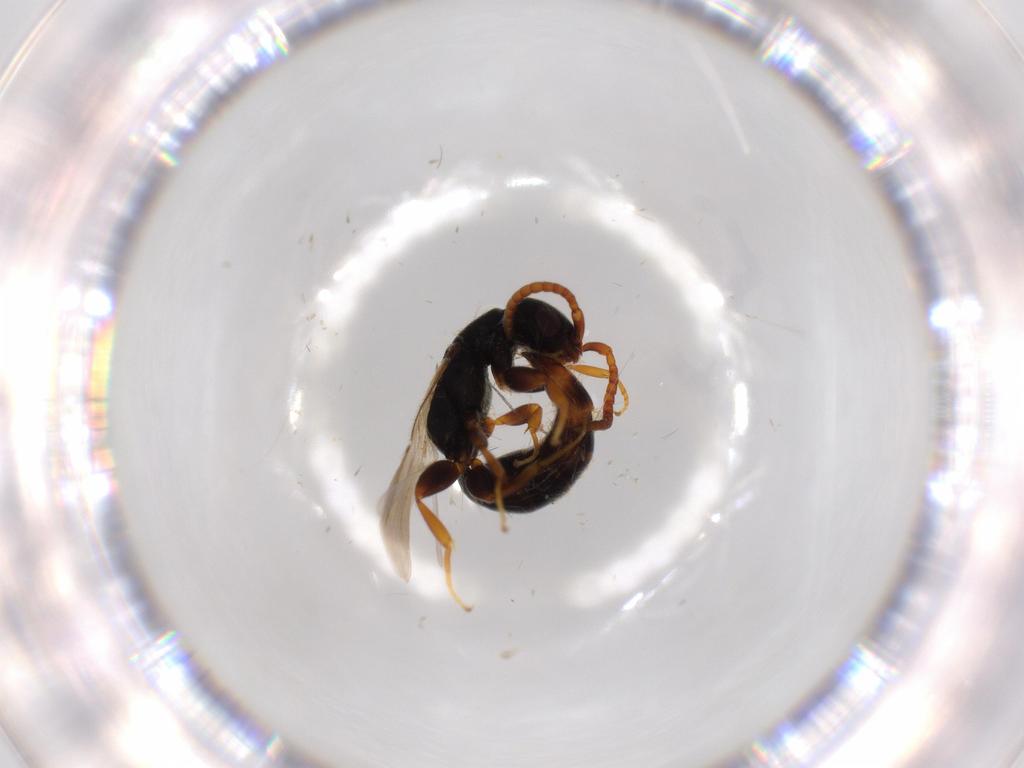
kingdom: Animalia
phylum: Arthropoda
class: Insecta
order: Hymenoptera
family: Bethylidae
